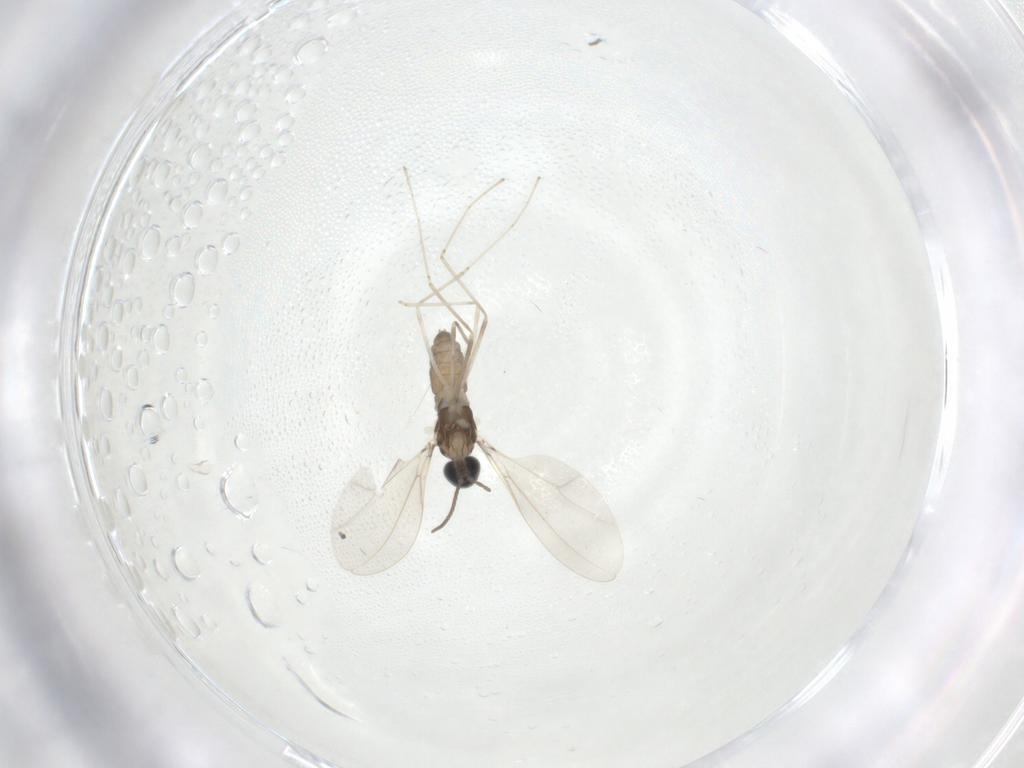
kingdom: Animalia
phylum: Arthropoda
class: Insecta
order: Diptera
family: Cecidomyiidae
